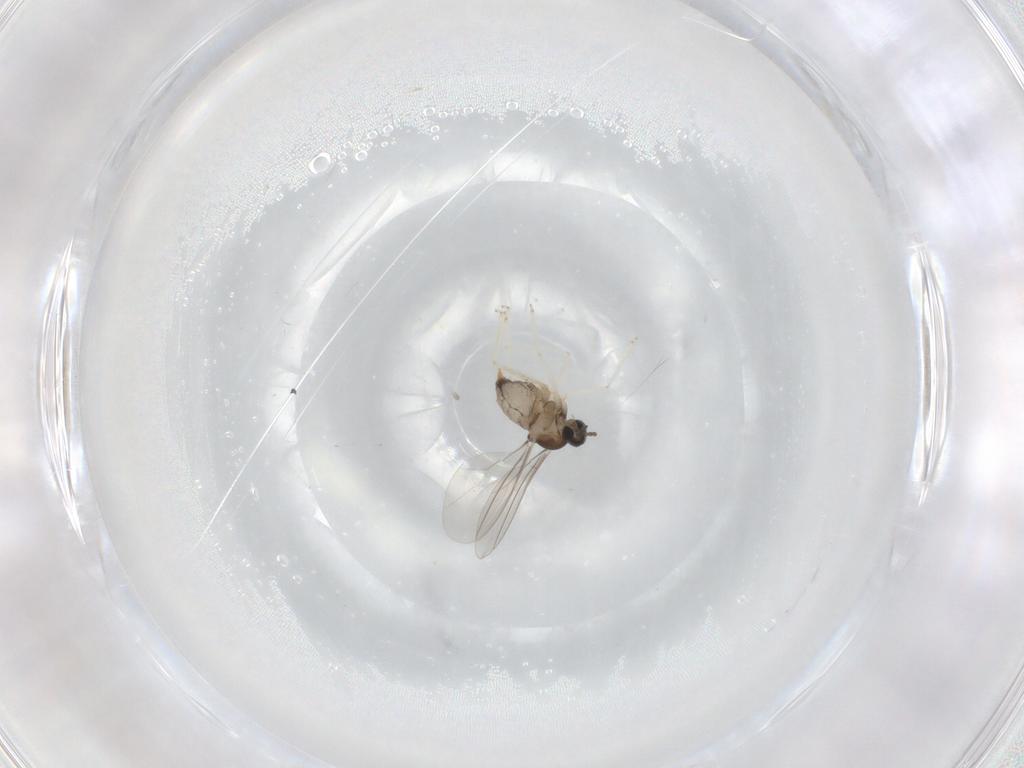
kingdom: Animalia
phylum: Arthropoda
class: Insecta
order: Diptera
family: Cecidomyiidae
